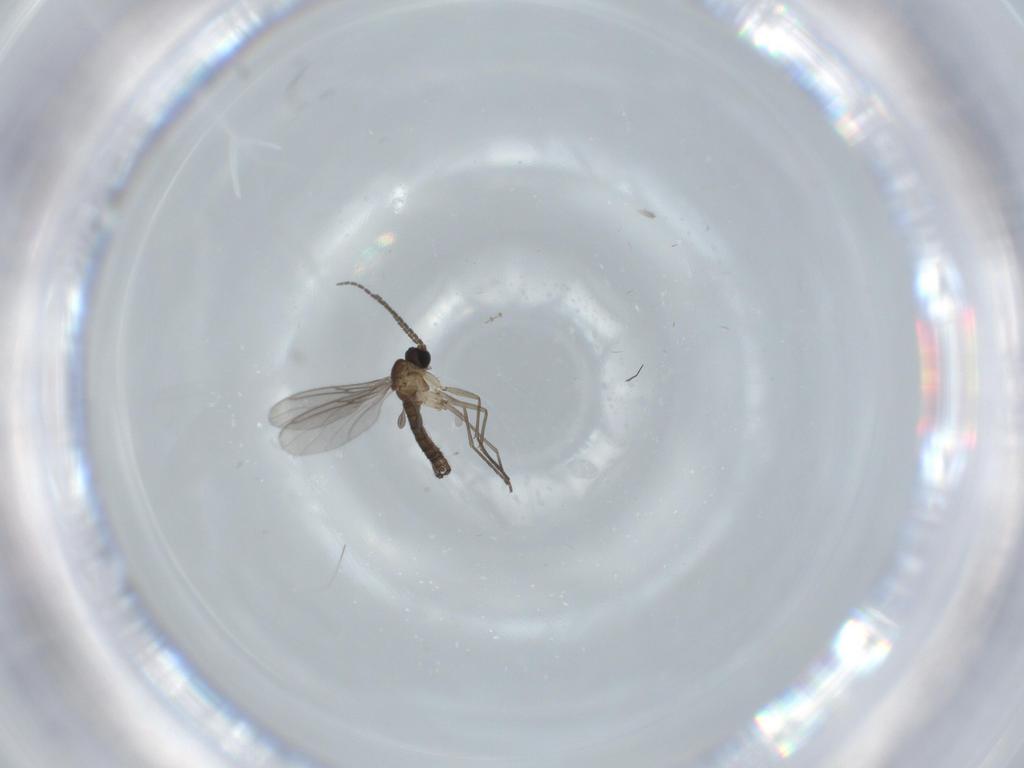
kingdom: Animalia
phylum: Arthropoda
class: Insecta
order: Diptera
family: Sciaridae
